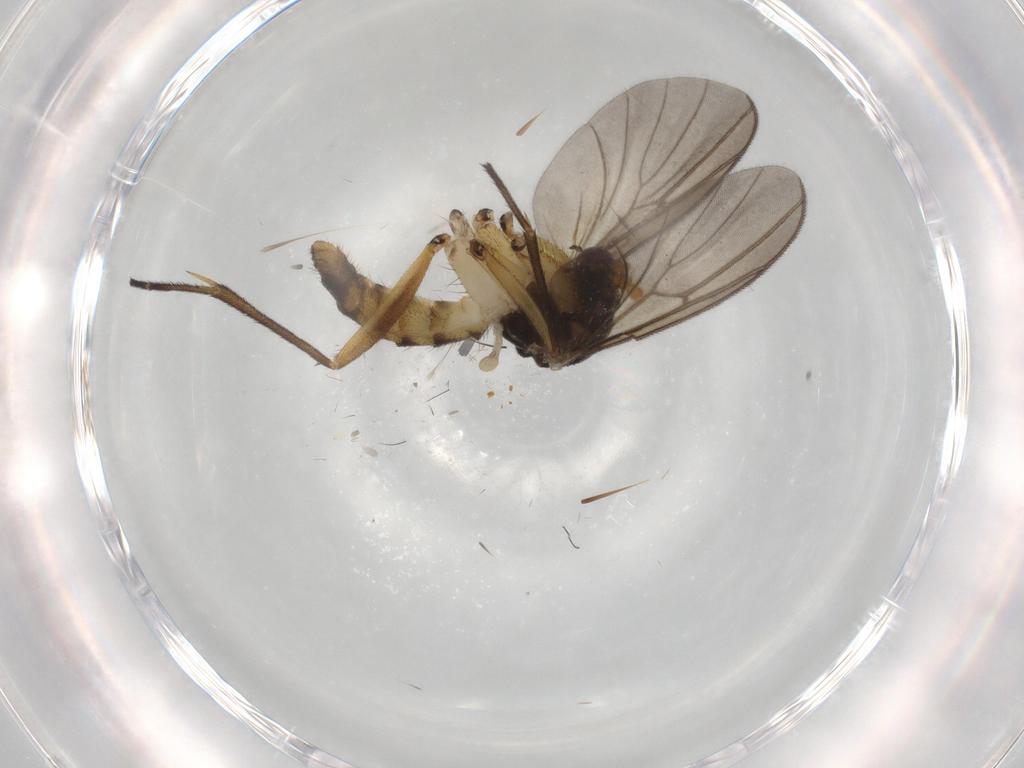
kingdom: Animalia
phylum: Arthropoda
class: Insecta
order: Diptera
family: Mycetophilidae
